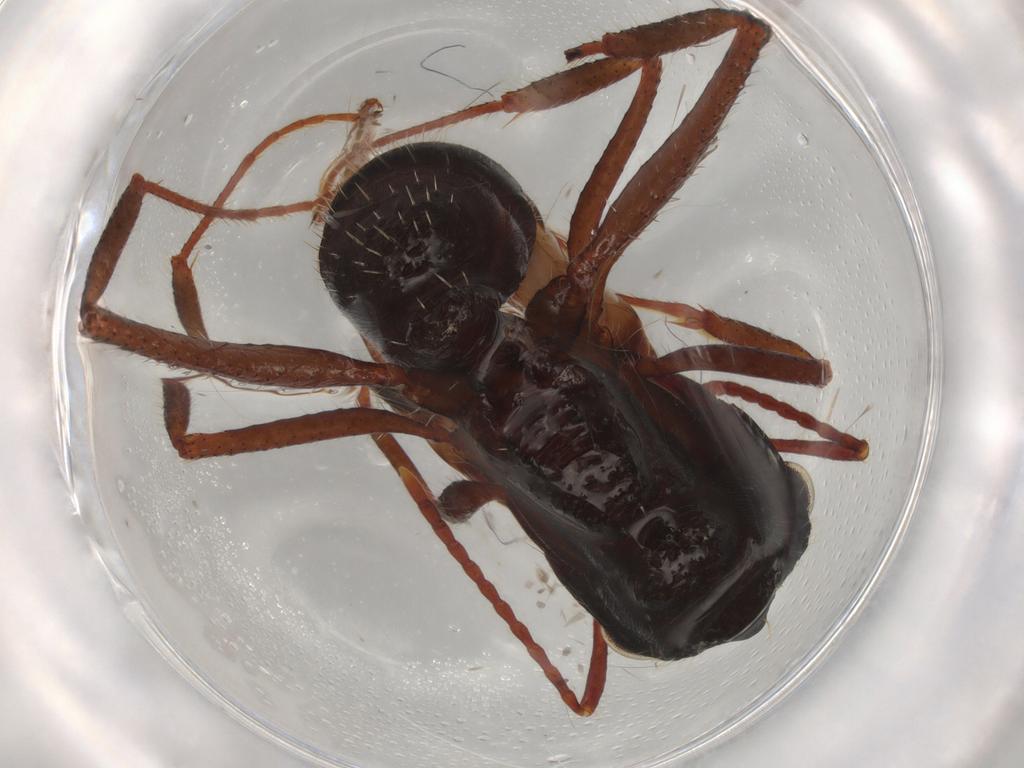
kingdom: Animalia
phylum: Arthropoda
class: Insecta
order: Hymenoptera
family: Formicidae
